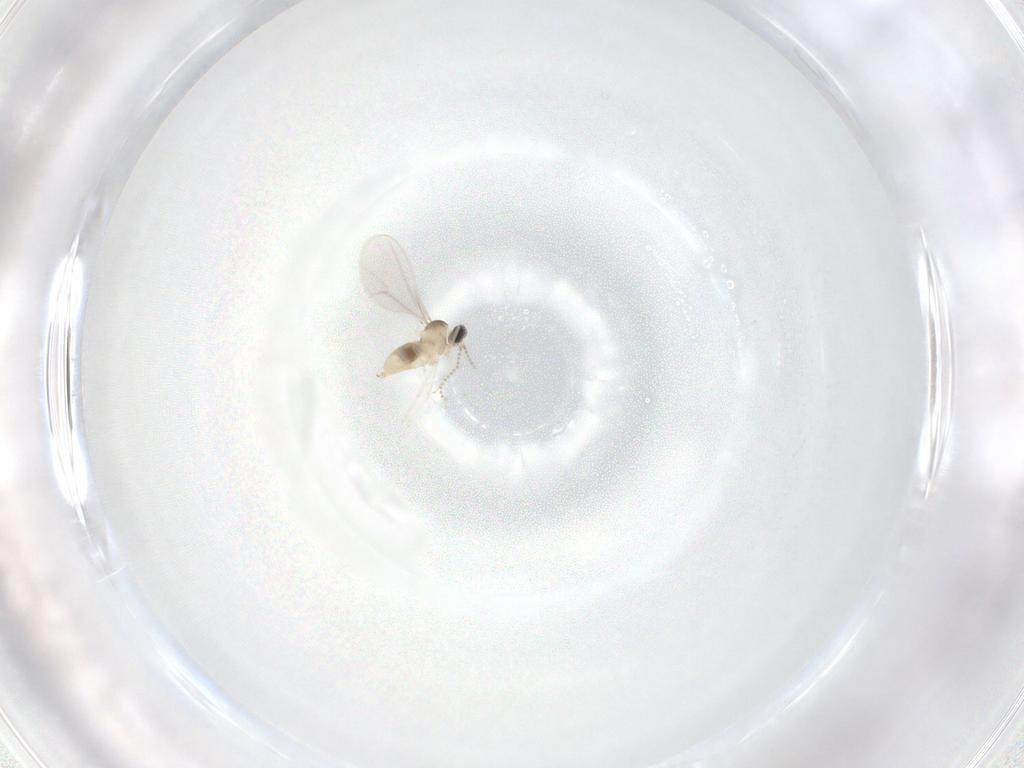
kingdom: Animalia
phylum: Arthropoda
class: Insecta
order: Diptera
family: Cecidomyiidae
